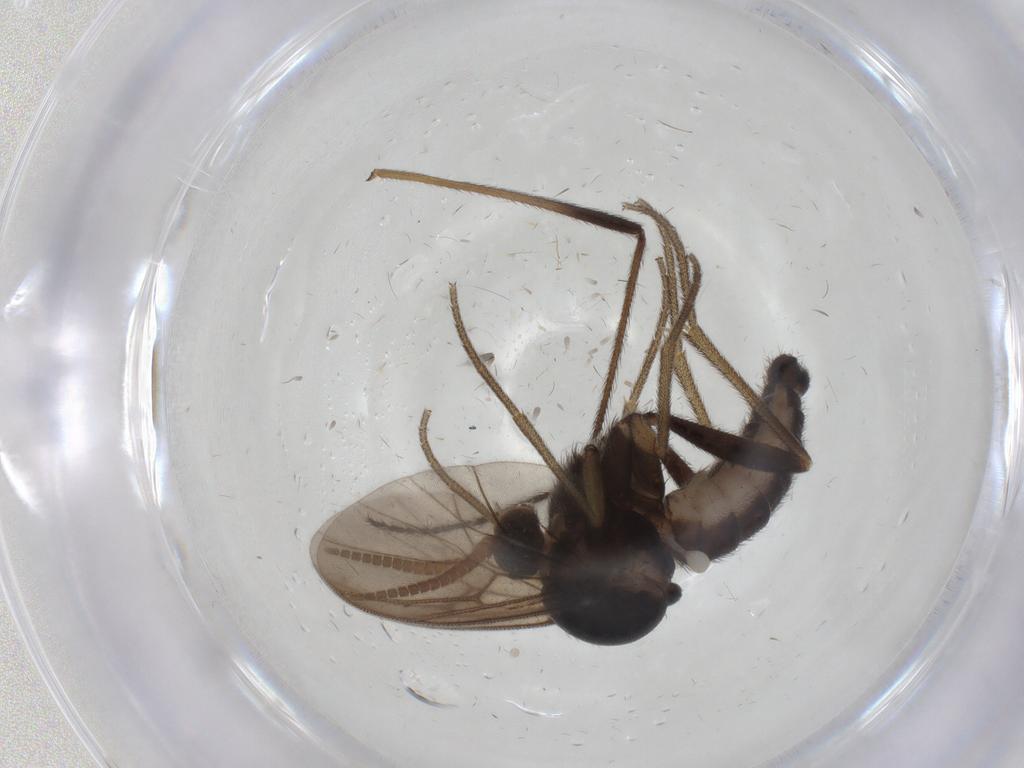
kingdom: Animalia
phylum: Arthropoda
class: Insecta
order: Diptera
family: Mycetophilidae
